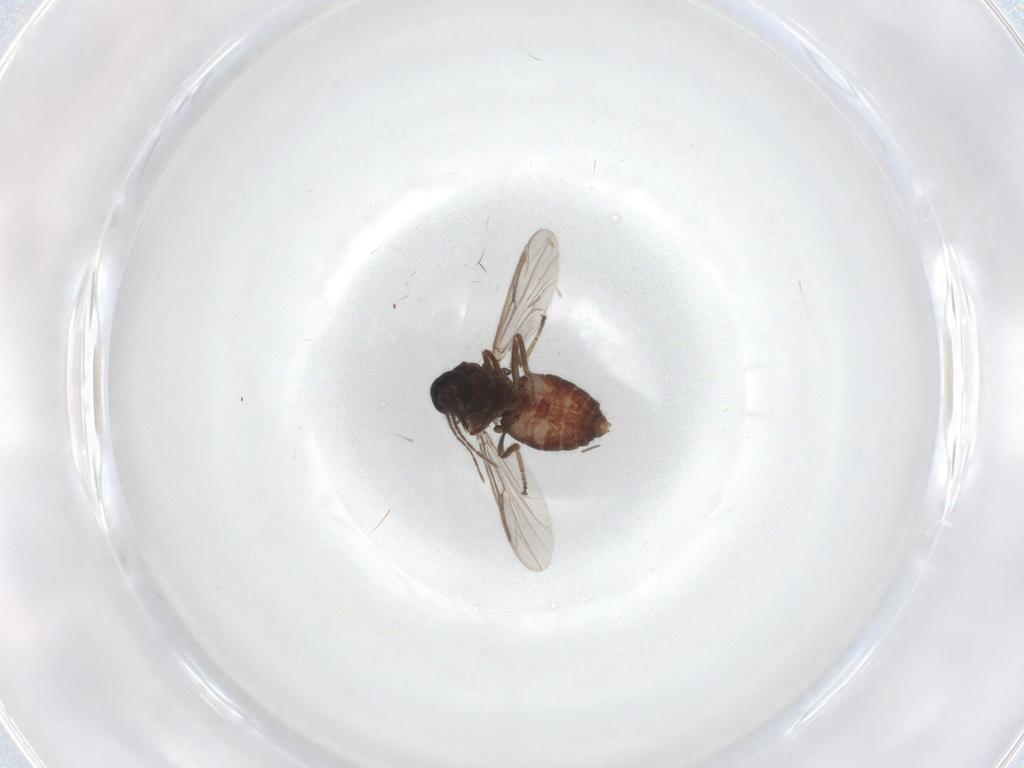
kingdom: Animalia
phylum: Arthropoda
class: Insecta
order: Diptera
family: Ceratopogonidae
